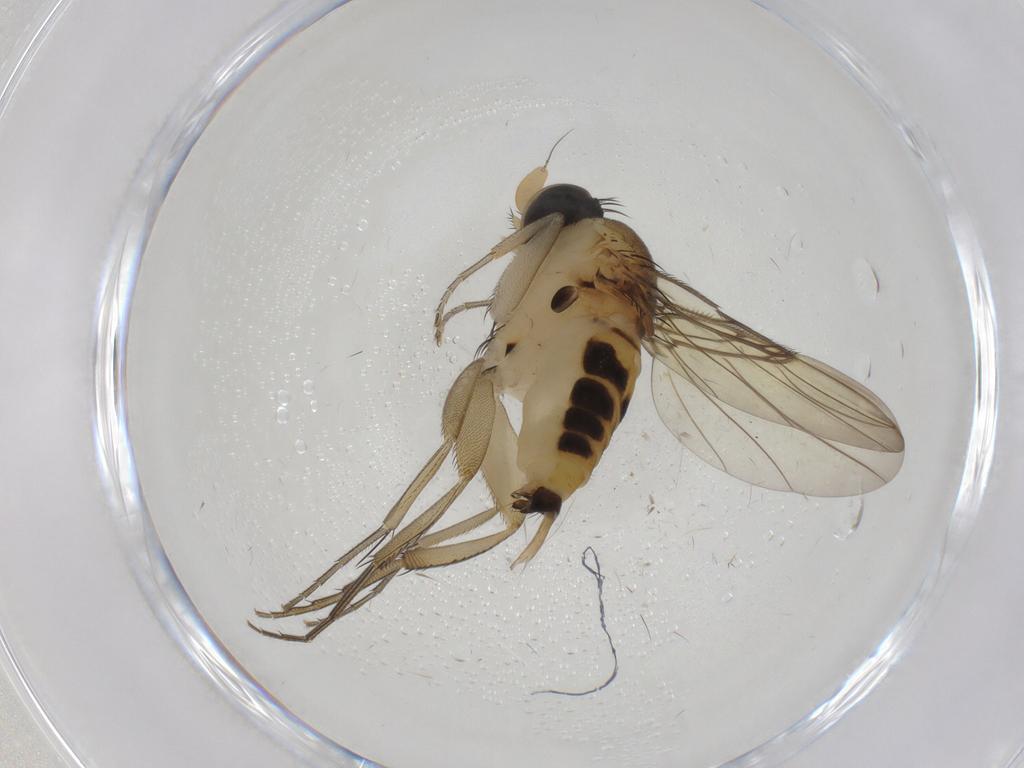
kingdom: Animalia
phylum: Arthropoda
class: Insecta
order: Diptera
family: Phoridae
